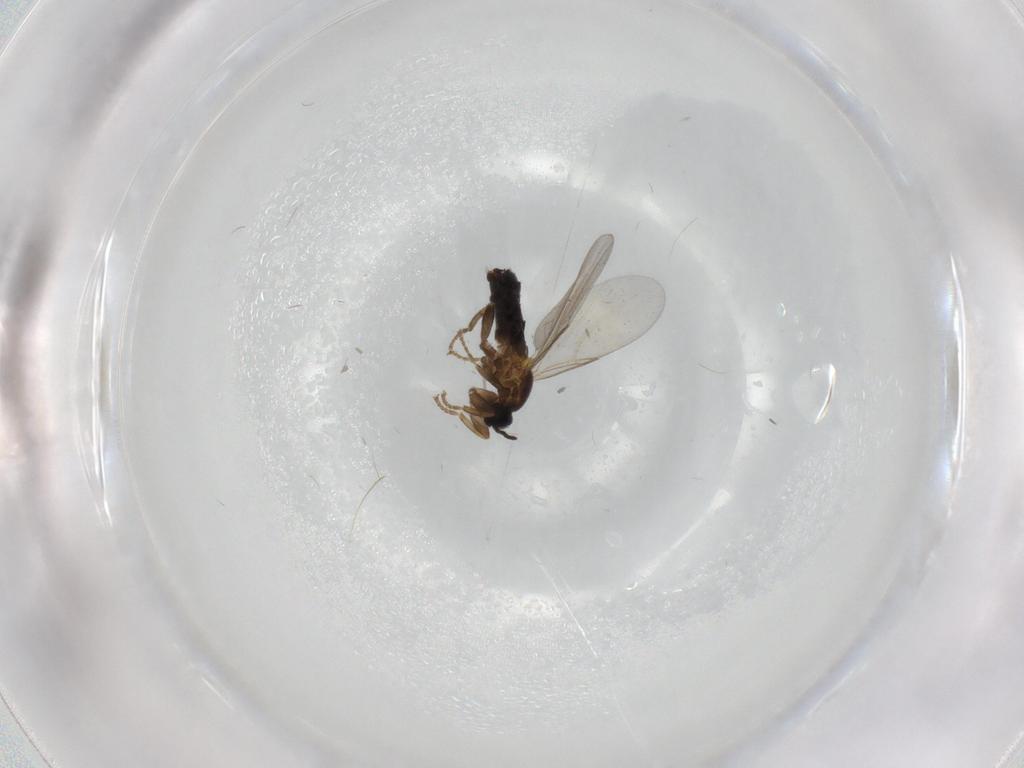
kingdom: Animalia
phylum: Arthropoda
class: Insecta
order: Diptera
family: Scatopsidae
